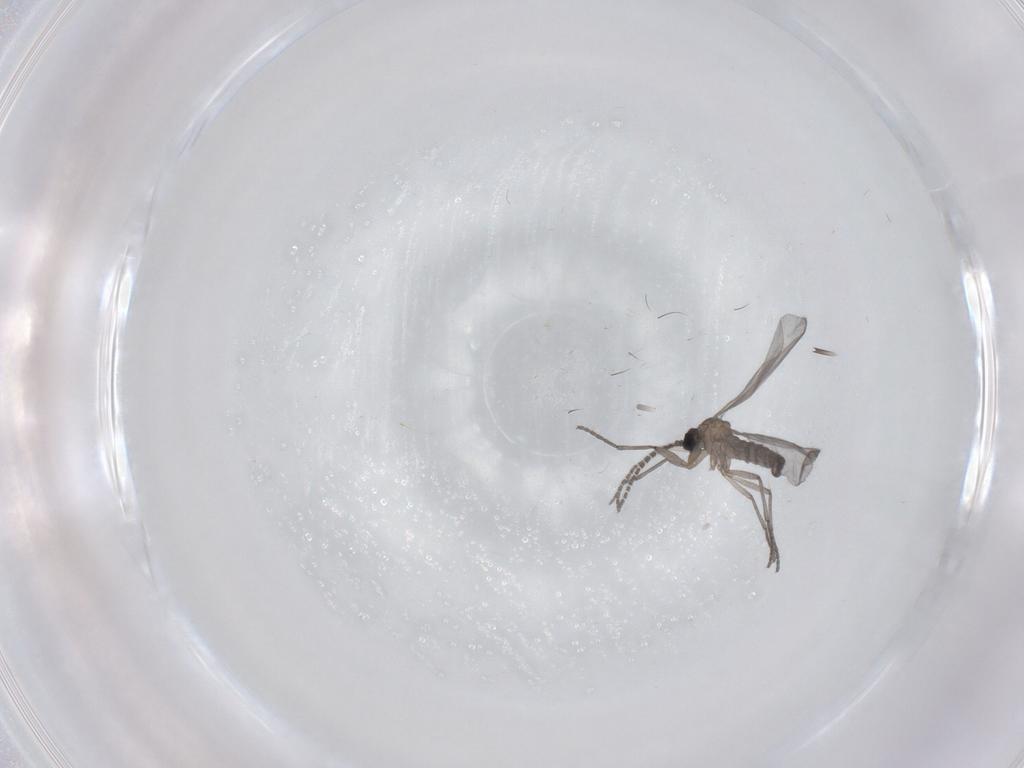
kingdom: Animalia
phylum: Arthropoda
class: Insecta
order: Diptera
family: Sciaridae
